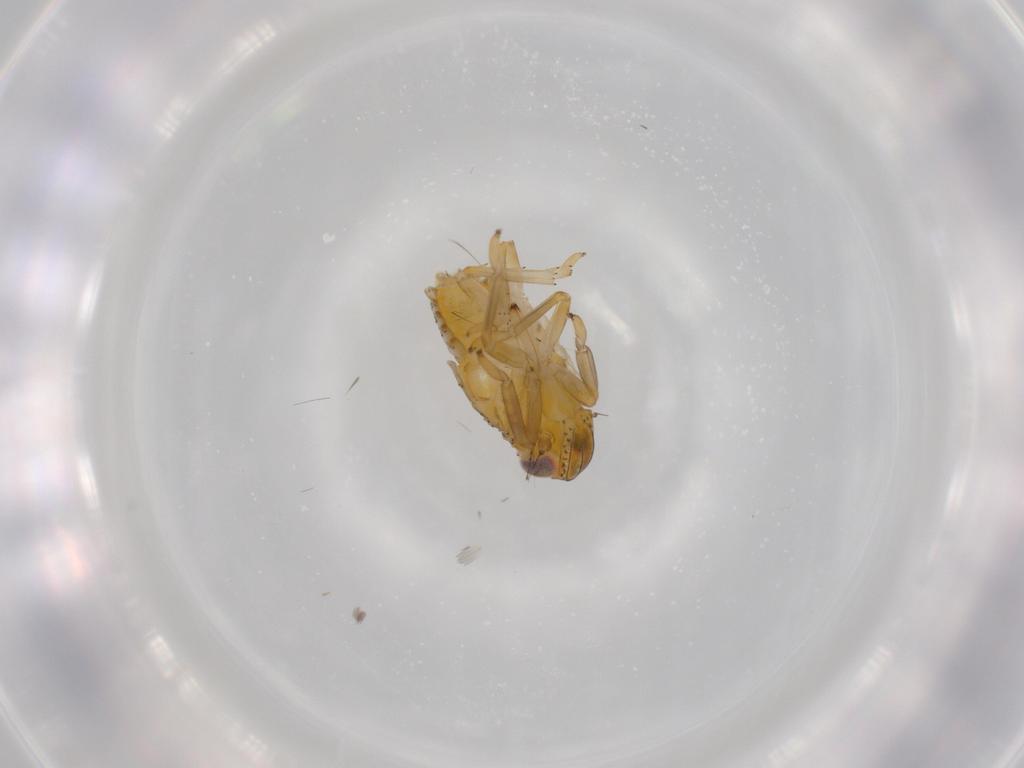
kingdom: Animalia
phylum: Arthropoda
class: Insecta
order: Hemiptera
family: Issidae
